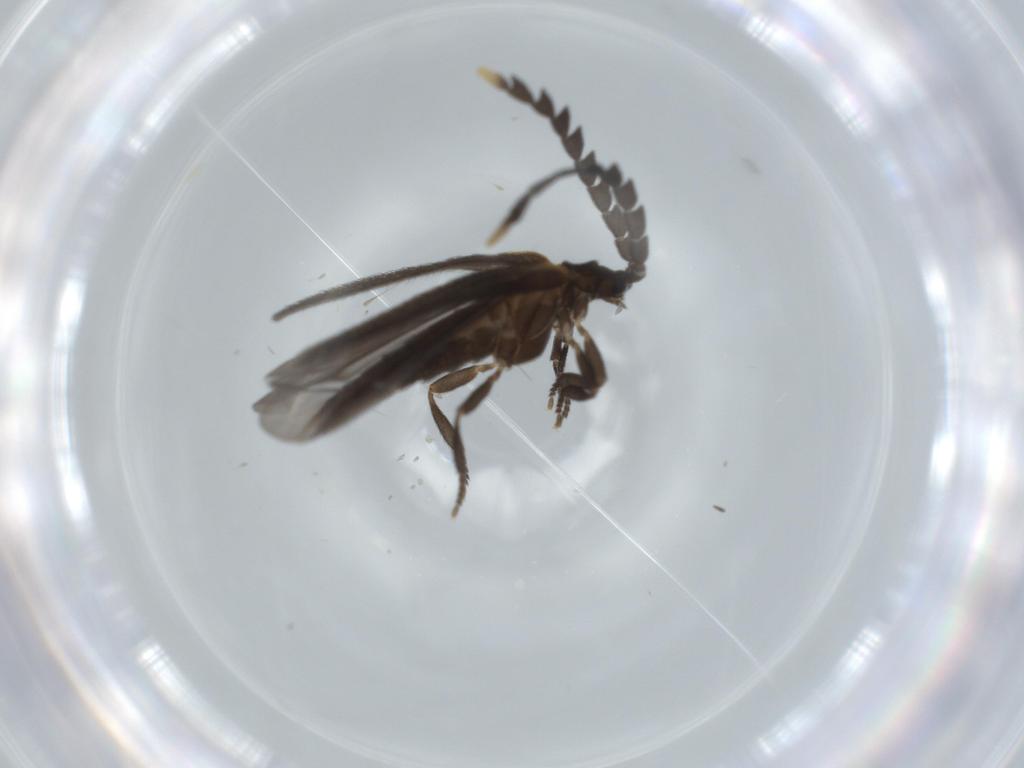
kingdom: Animalia
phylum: Arthropoda
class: Insecta
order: Coleoptera
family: Lycidae
